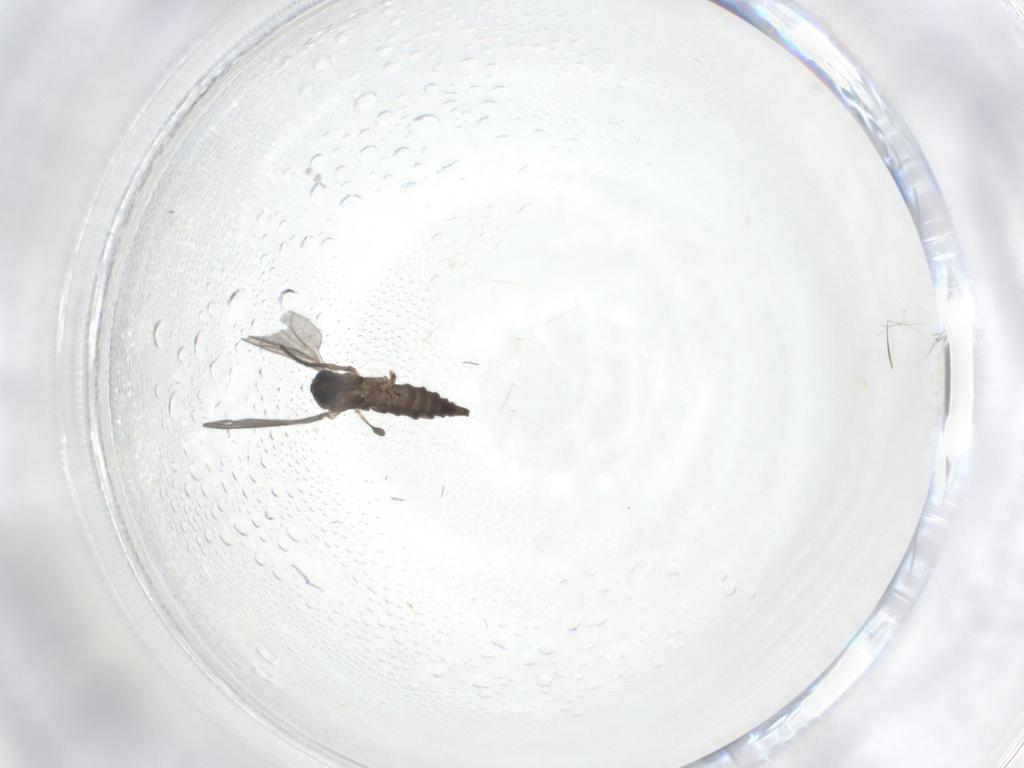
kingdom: Animalia
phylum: Arthropoda
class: Insecta
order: Diptera
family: Sciaridae
